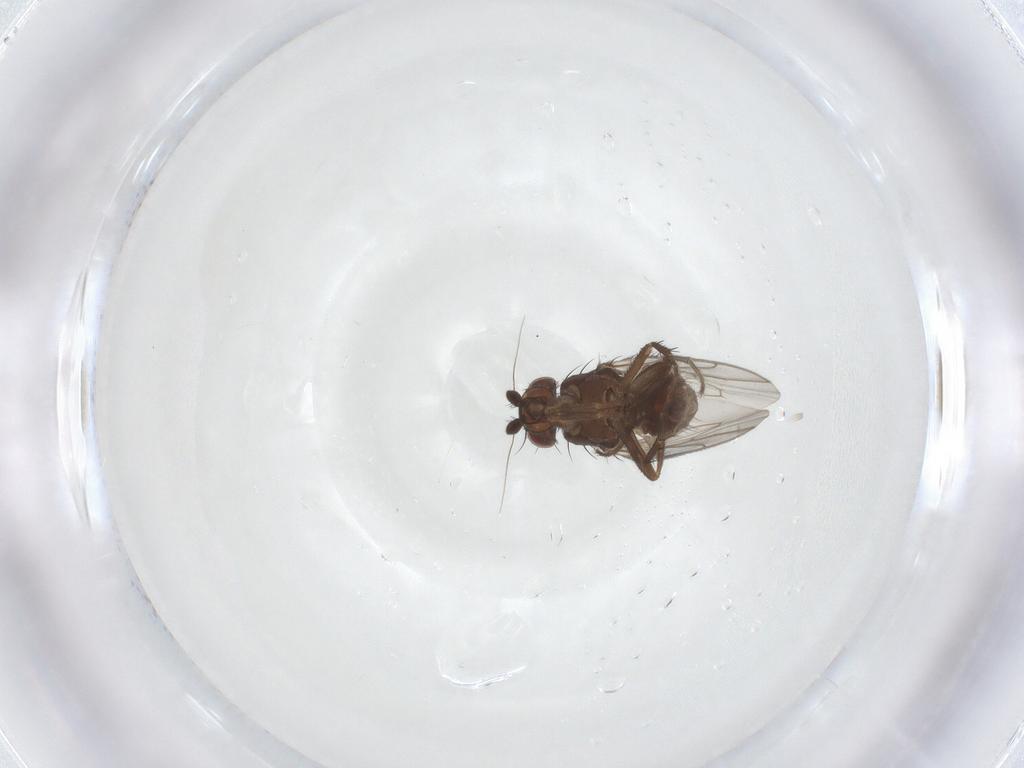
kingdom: Animalia
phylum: Arthropoda
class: Insecta
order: Diptera
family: Sphaeroceridae
